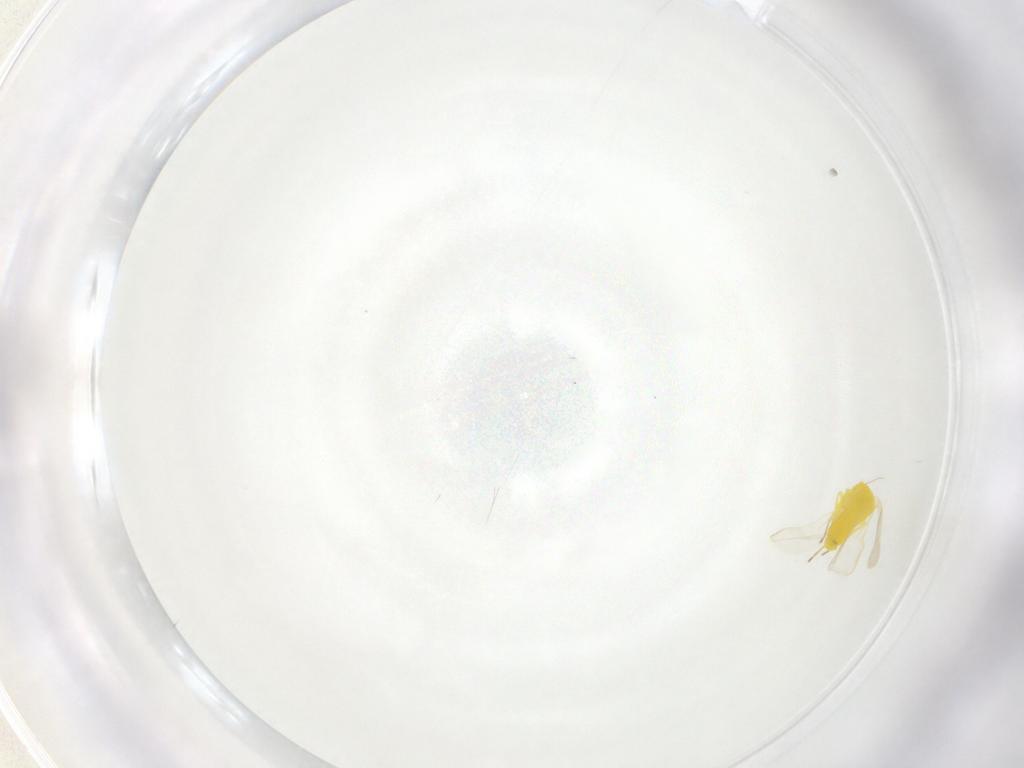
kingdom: Animalia
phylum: Arthropoda
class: Insecta
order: Hemiptera
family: Aleyrodidae
